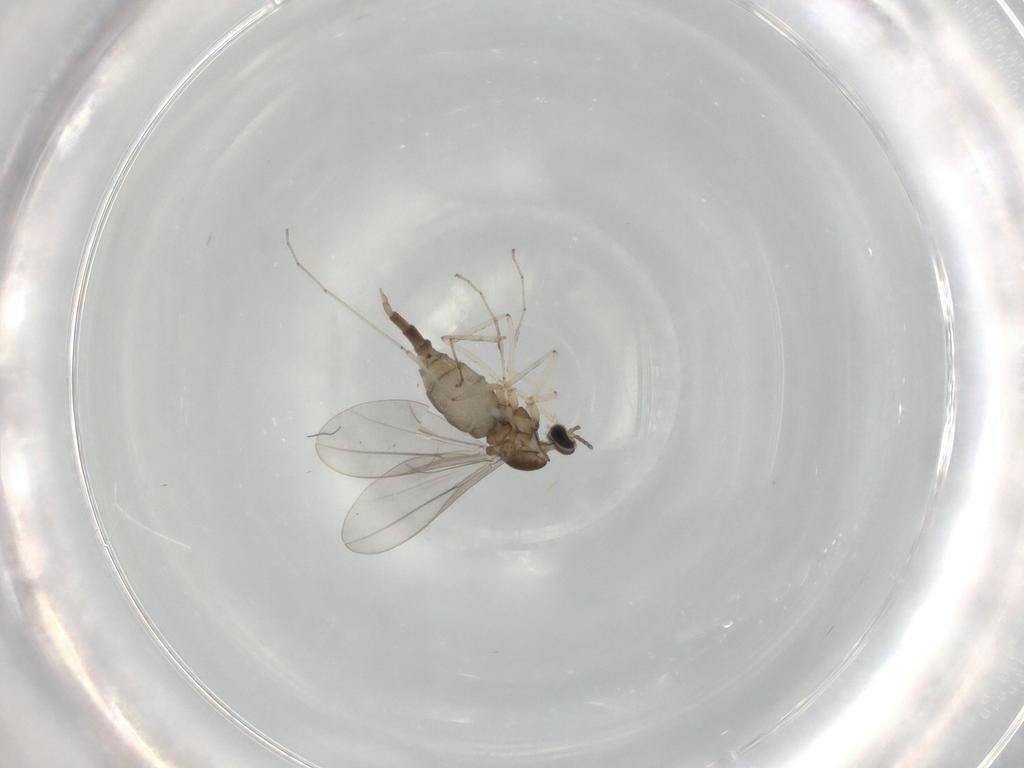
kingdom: Animalia
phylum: Arthropoda
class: Insecta
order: Diptera
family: Cecidomyiidae
